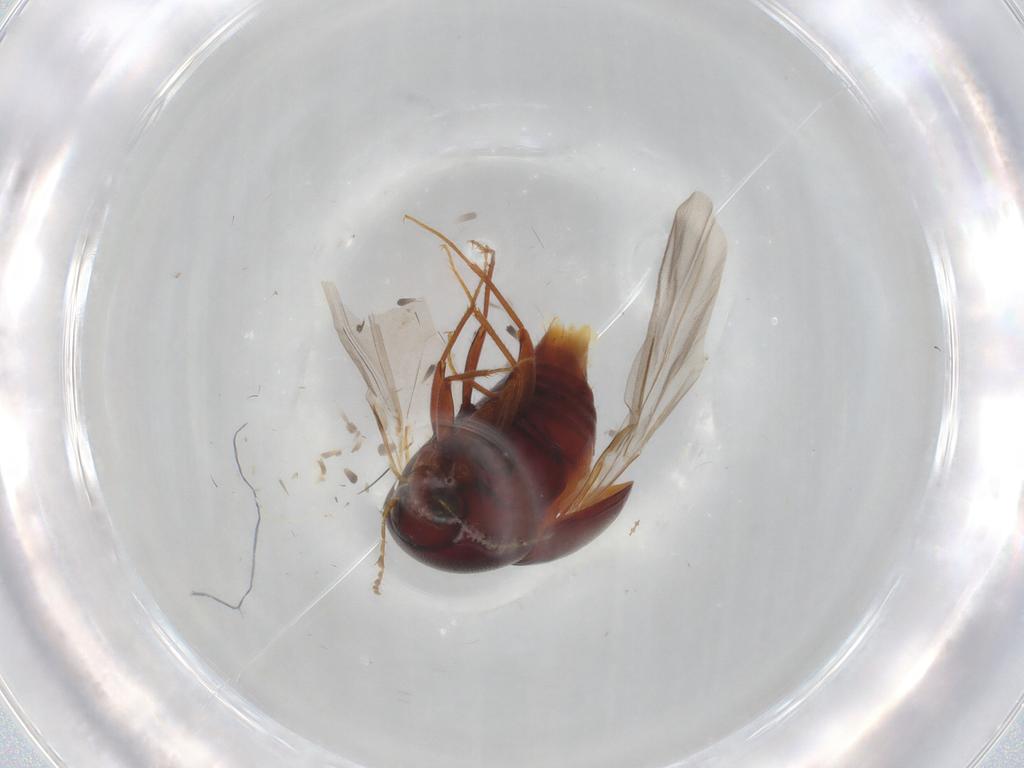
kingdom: Animalia
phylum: Arthropoda
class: Insecta
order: Coleoptera
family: Staphylinidae
